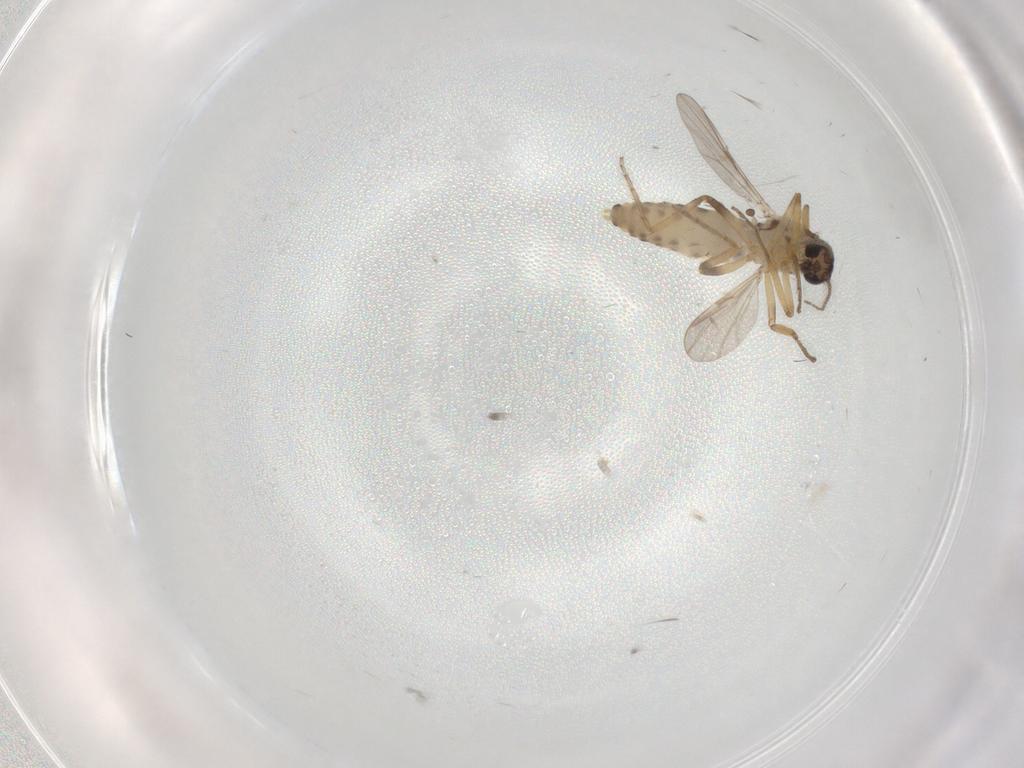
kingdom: Animalia
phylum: Arthropoda
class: Insecta
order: Diptera
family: Ceratopogonidae
